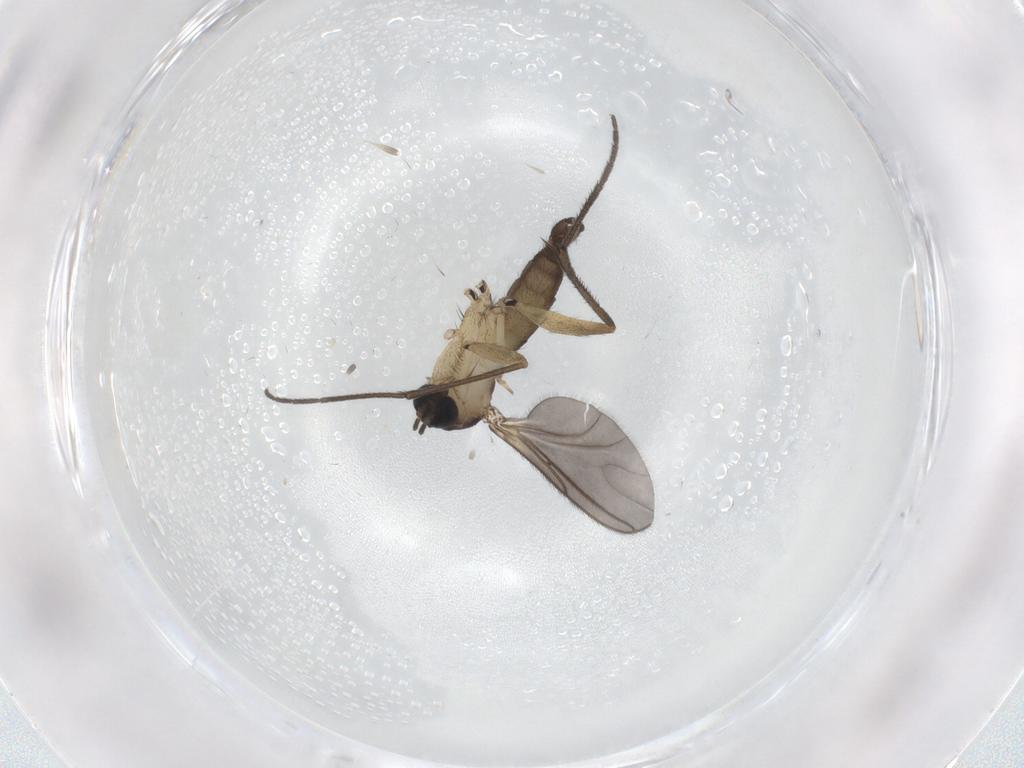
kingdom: Animalia
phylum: Arthropoda
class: Insecta
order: Diptera
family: Sciaridae
